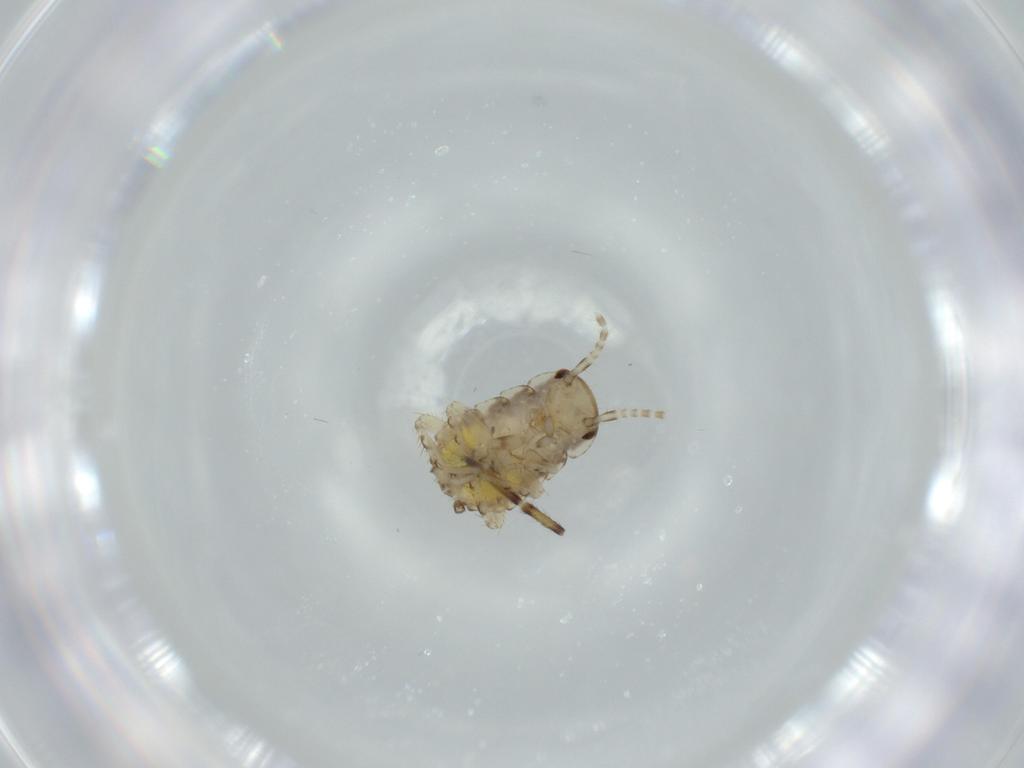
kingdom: Animalia
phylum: Arthropoda
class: Insecta
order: Blattodea
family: Ectobiidae
